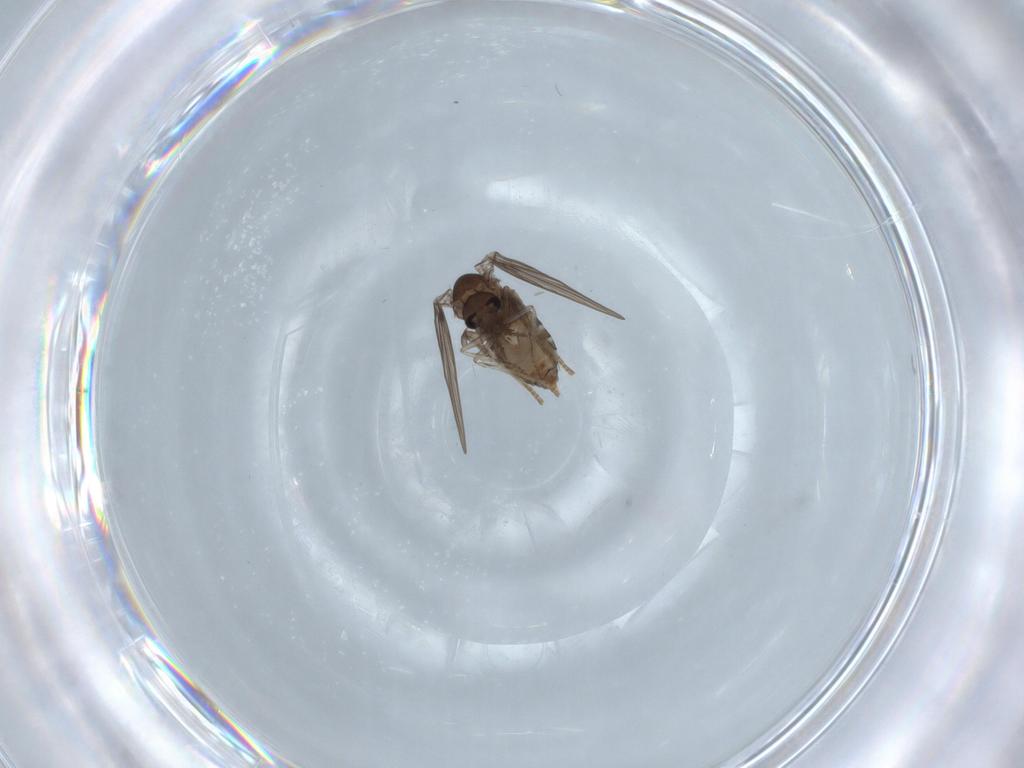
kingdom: Animalia
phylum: Arthropoda
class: Insecta
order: Diptera
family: Psychodidae
